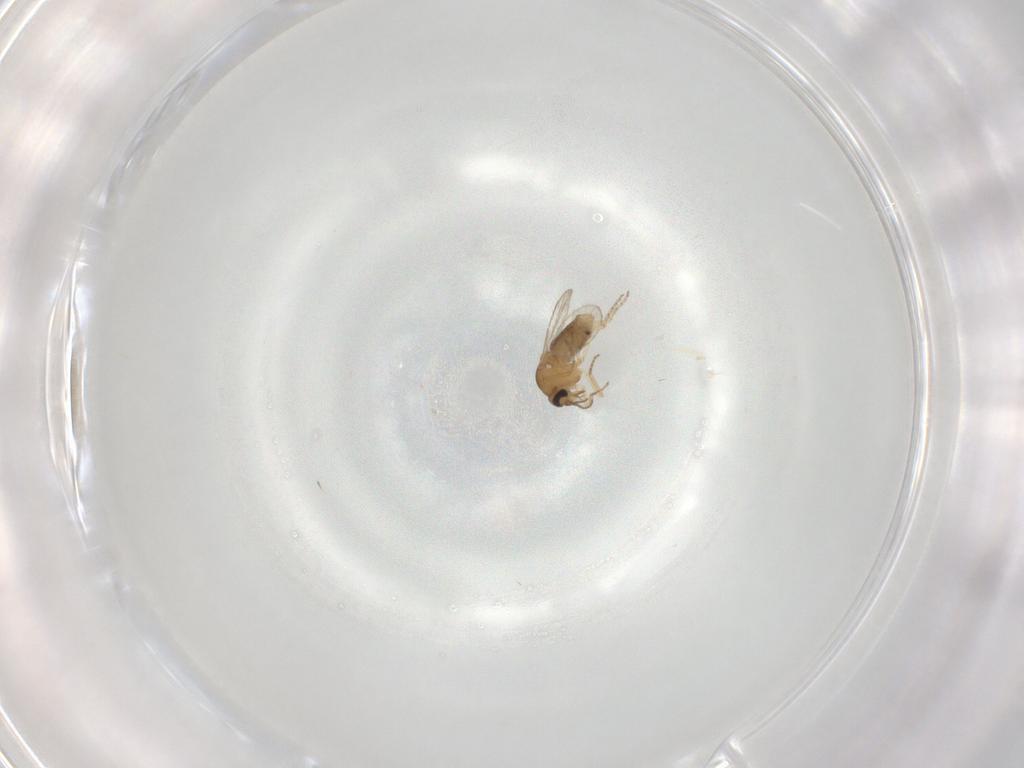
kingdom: Animalia
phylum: Arthropoda
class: Insecta
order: Diptera
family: Ceratopogonidae
